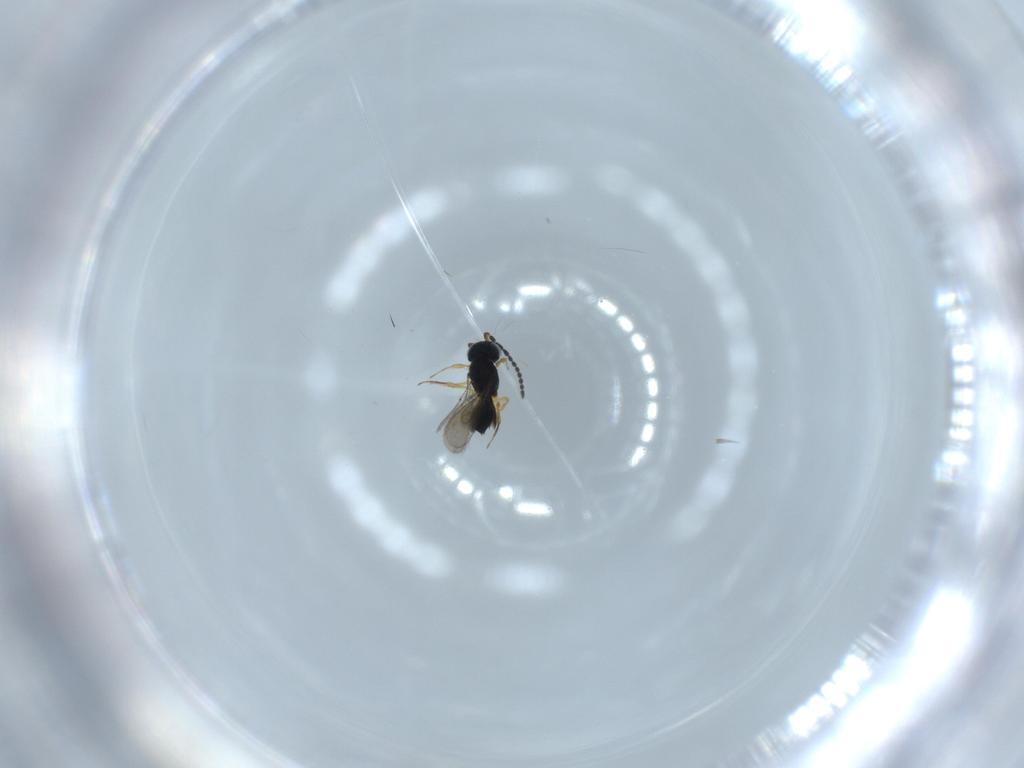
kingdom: Animalia
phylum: Arthropoda
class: Insecta
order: Hymenoptera
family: Scelionidae
